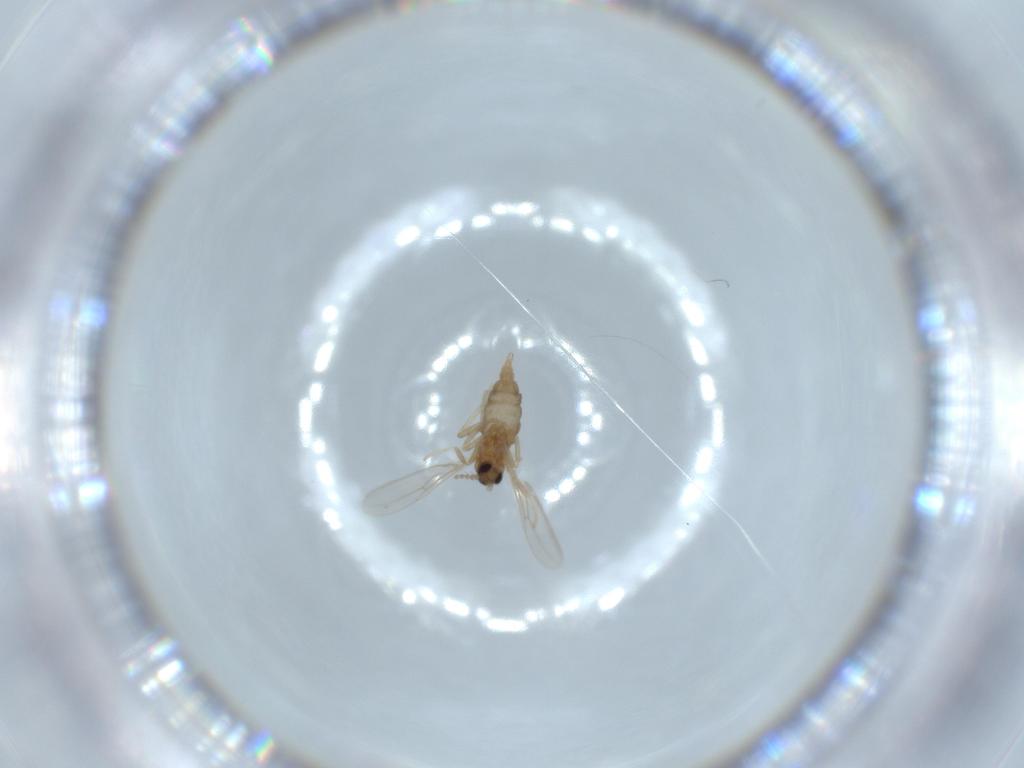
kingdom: Animalia
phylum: Arthropoda
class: Insecta
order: Diptera
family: Cecidomyiidae
